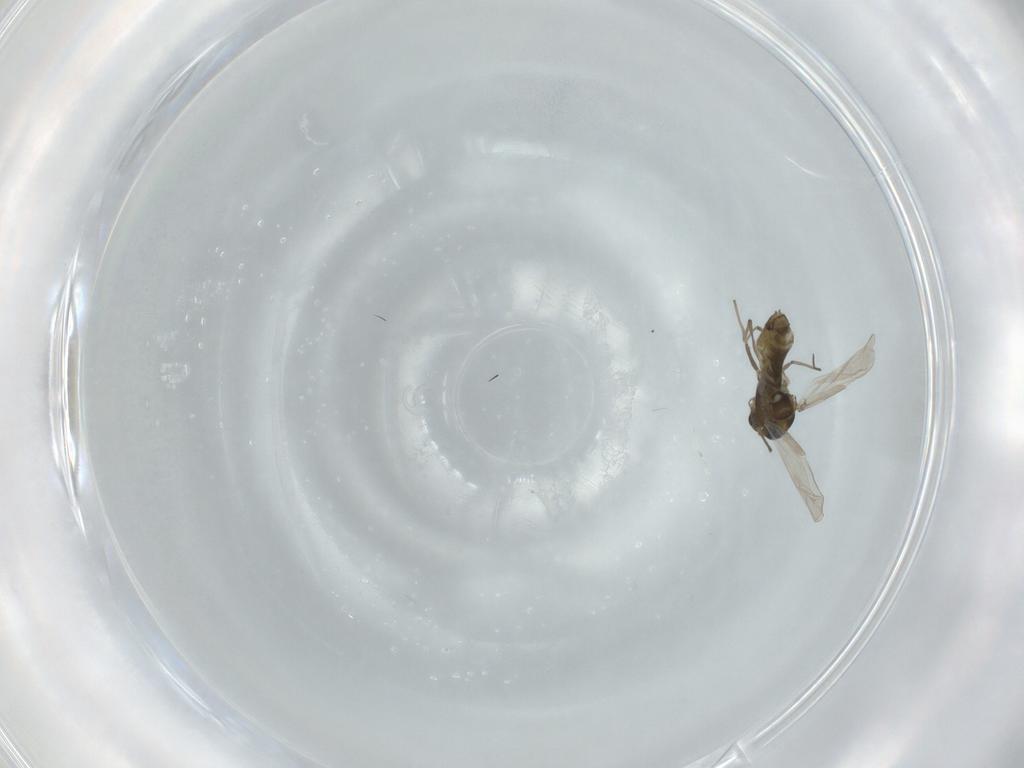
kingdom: Animalia
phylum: Arthropoda
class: Insecta
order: Diptera
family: Chironomidae
